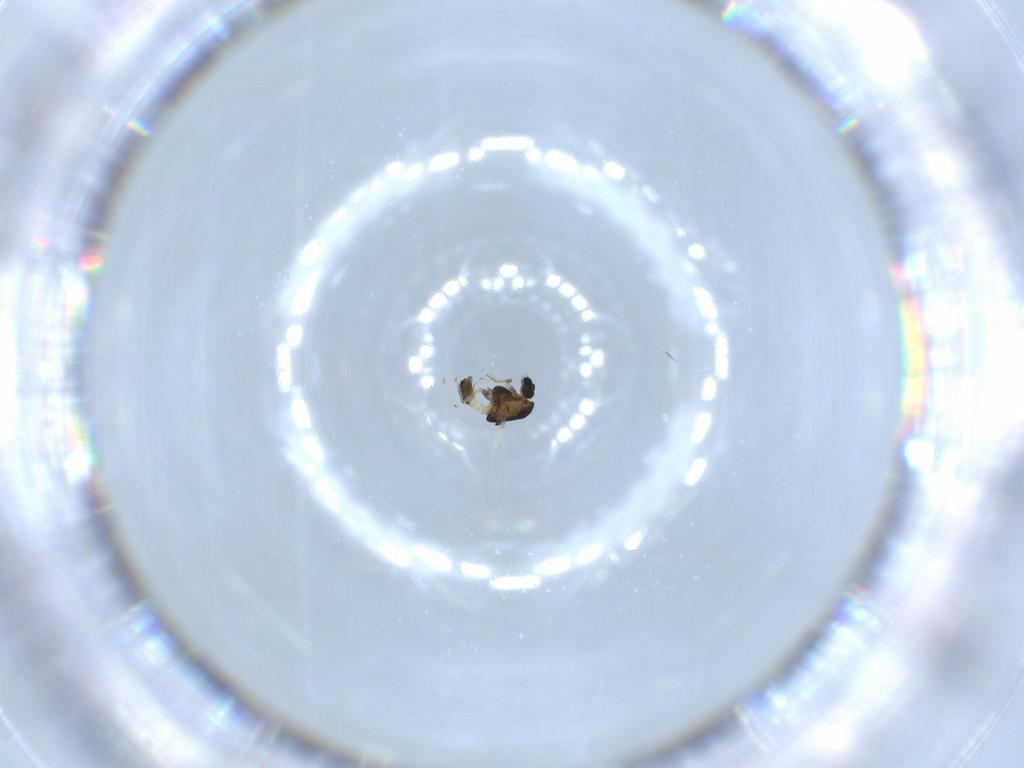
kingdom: Animalia
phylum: Arthropoda
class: Insecta
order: Diptera
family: Chironomidae
